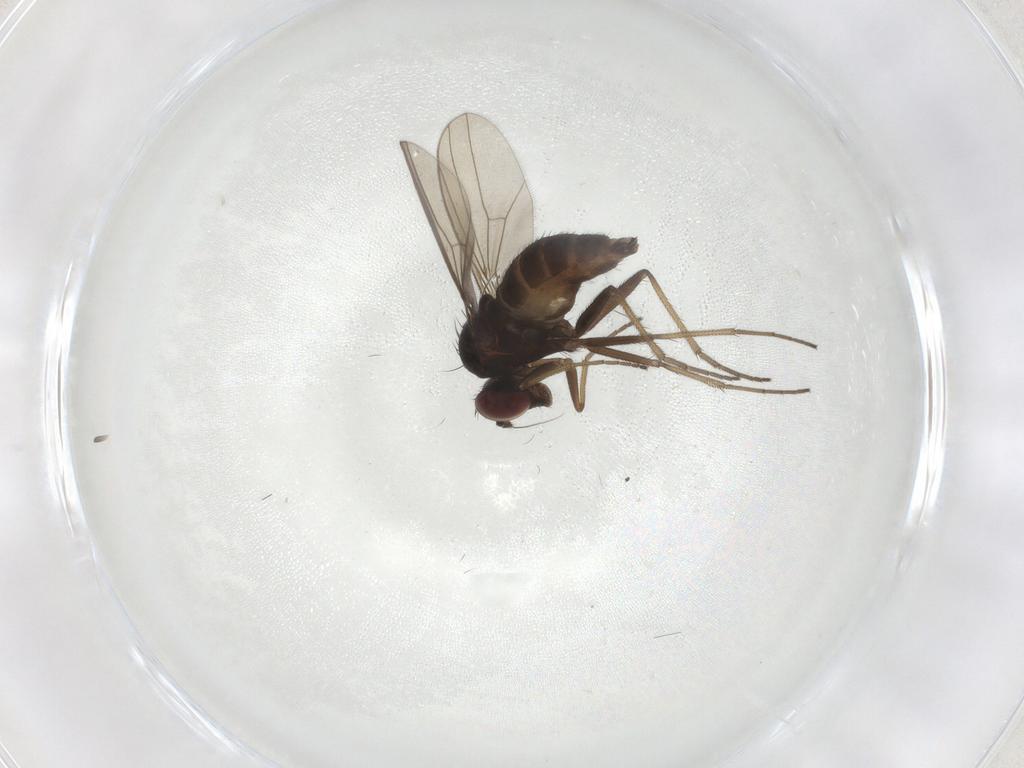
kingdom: Animalia
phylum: Arthropoda
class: Insecta
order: Diptera
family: Dolichopodidae
